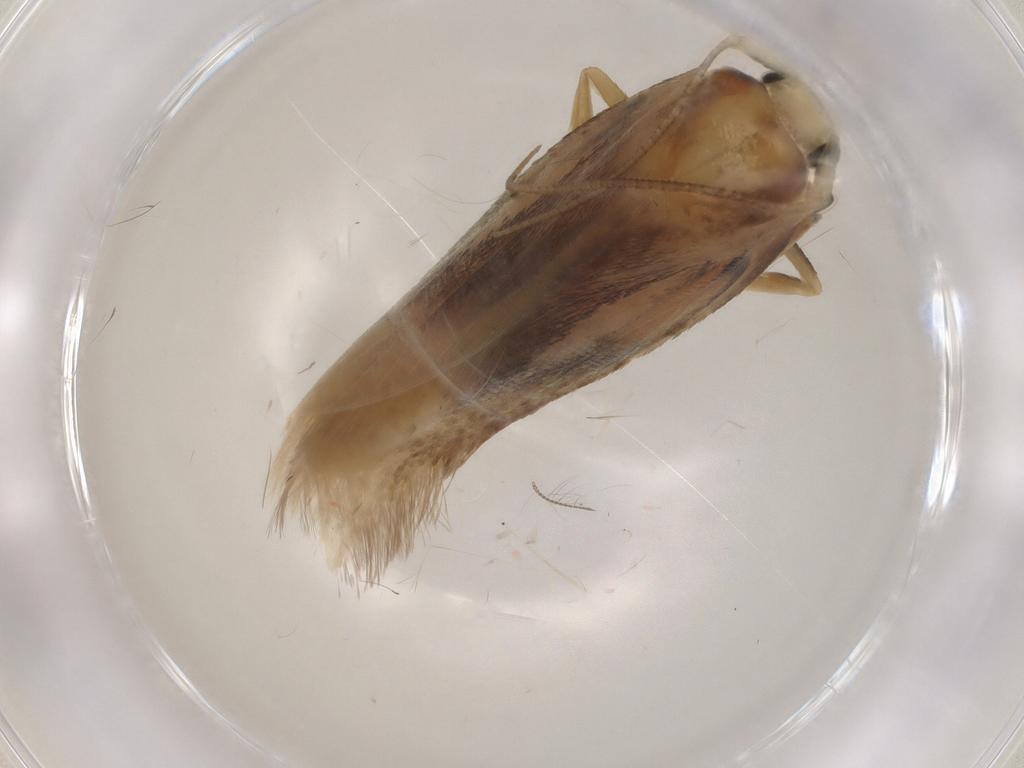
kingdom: Animalia
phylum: Arthropoda
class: Insecta
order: Lepidoptera
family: Geometridae
